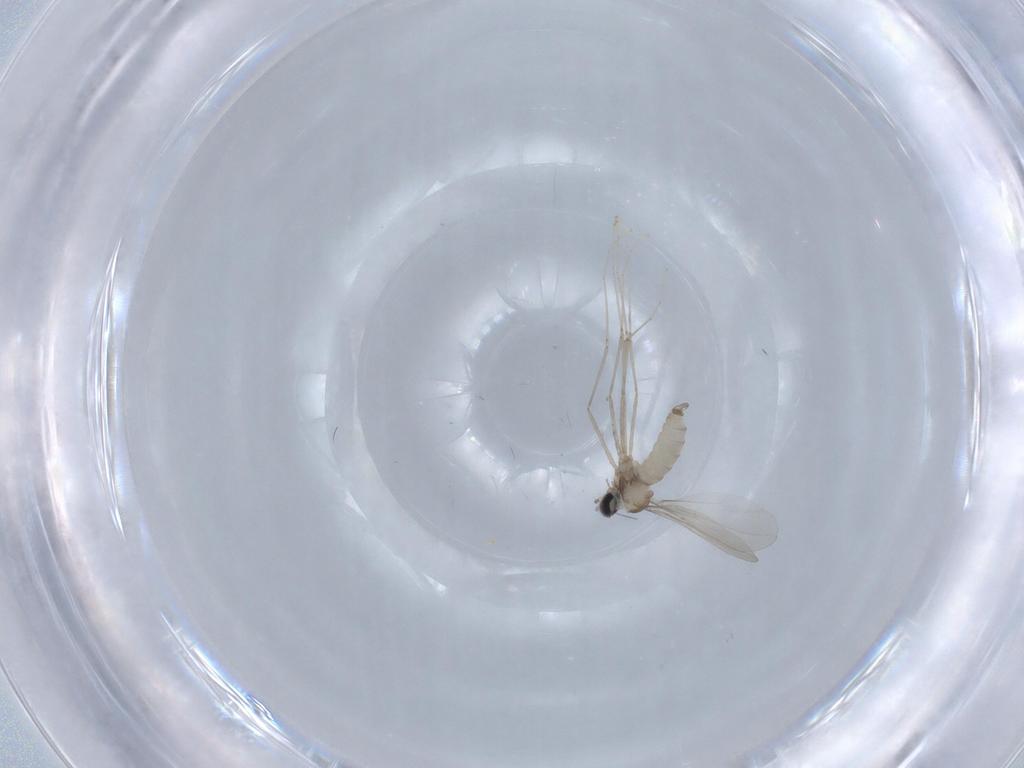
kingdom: Animalia
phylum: Arthropoda
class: Insecta
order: Diptera
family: Cecidomyiidae
